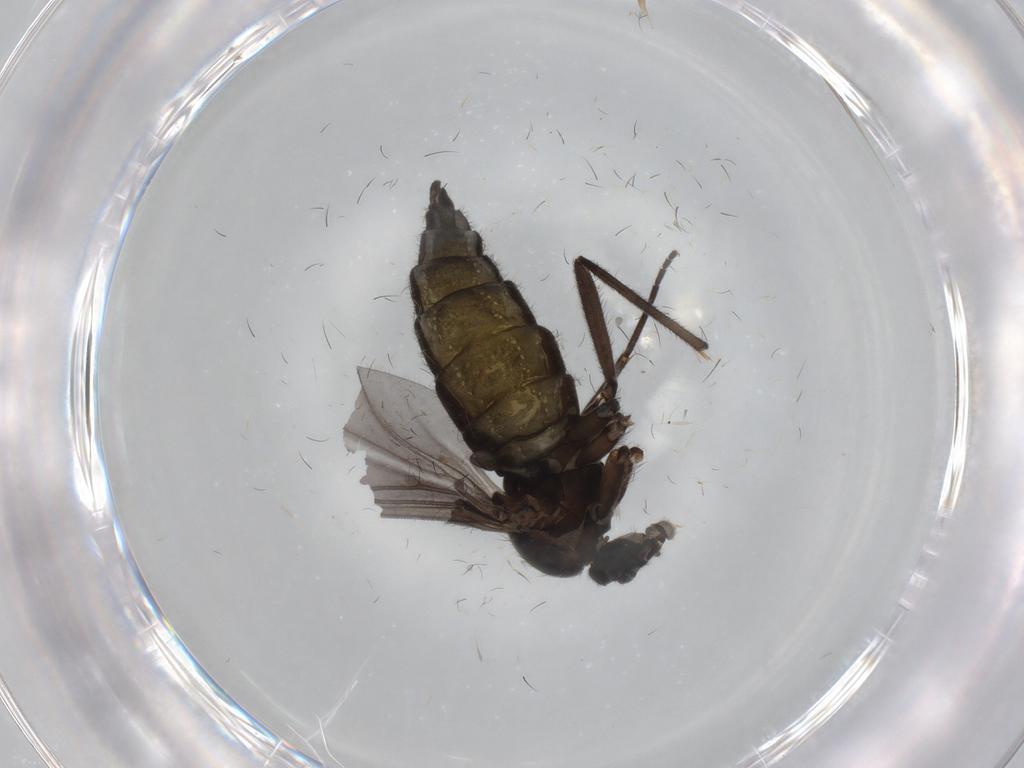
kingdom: Animalia
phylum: Arthropoda
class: Insecta
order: Diptera
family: Sciaridae
